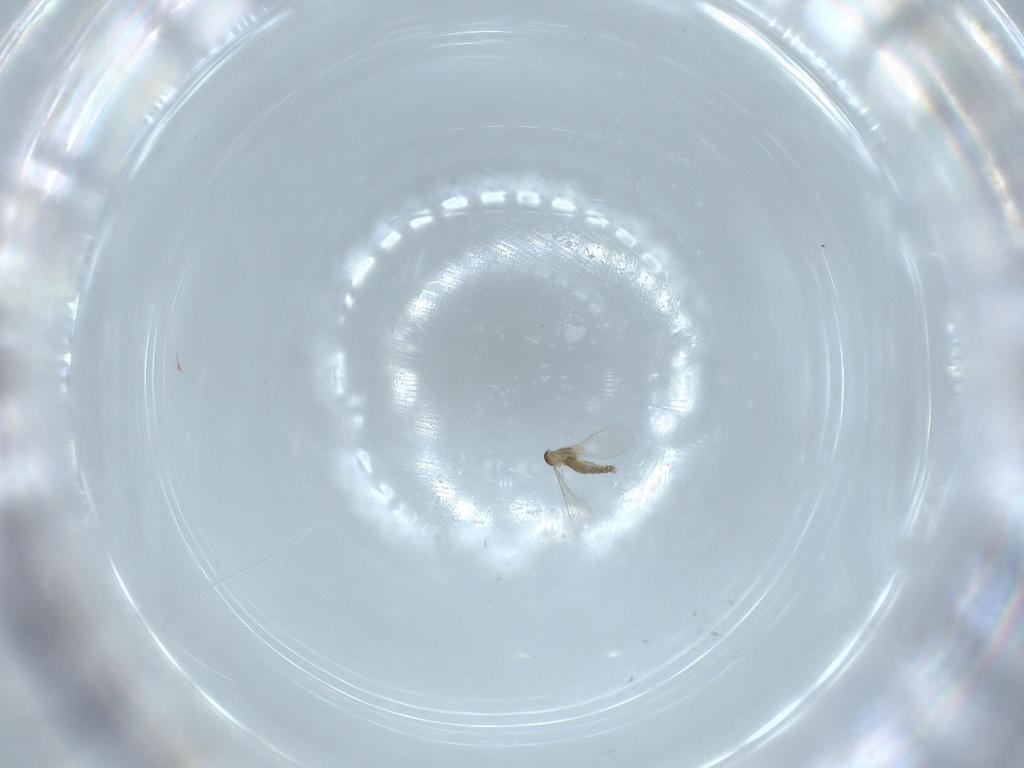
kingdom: Animalia
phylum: Arthropoda
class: Insecta
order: Diptera
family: Sciaridae
